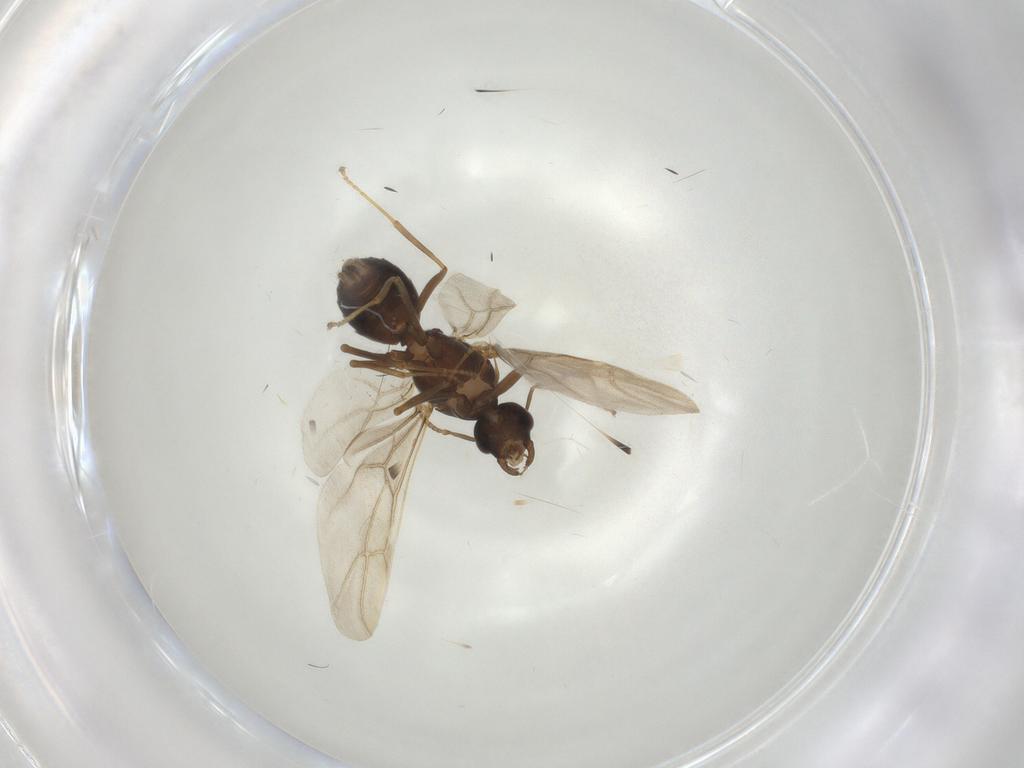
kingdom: Animalia
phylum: Arthropoda
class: Insecta
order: Hymenoptera
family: Formicidae
